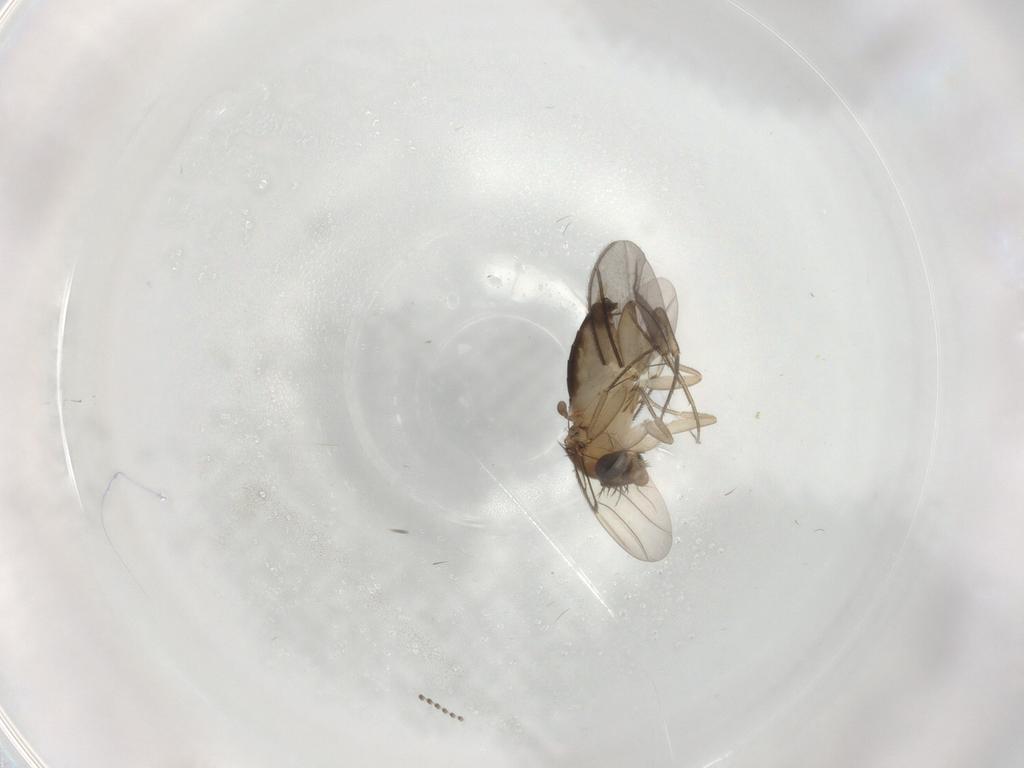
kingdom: Animalia
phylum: Arthropoda
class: Insecta
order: Diptera
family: Phoridae
